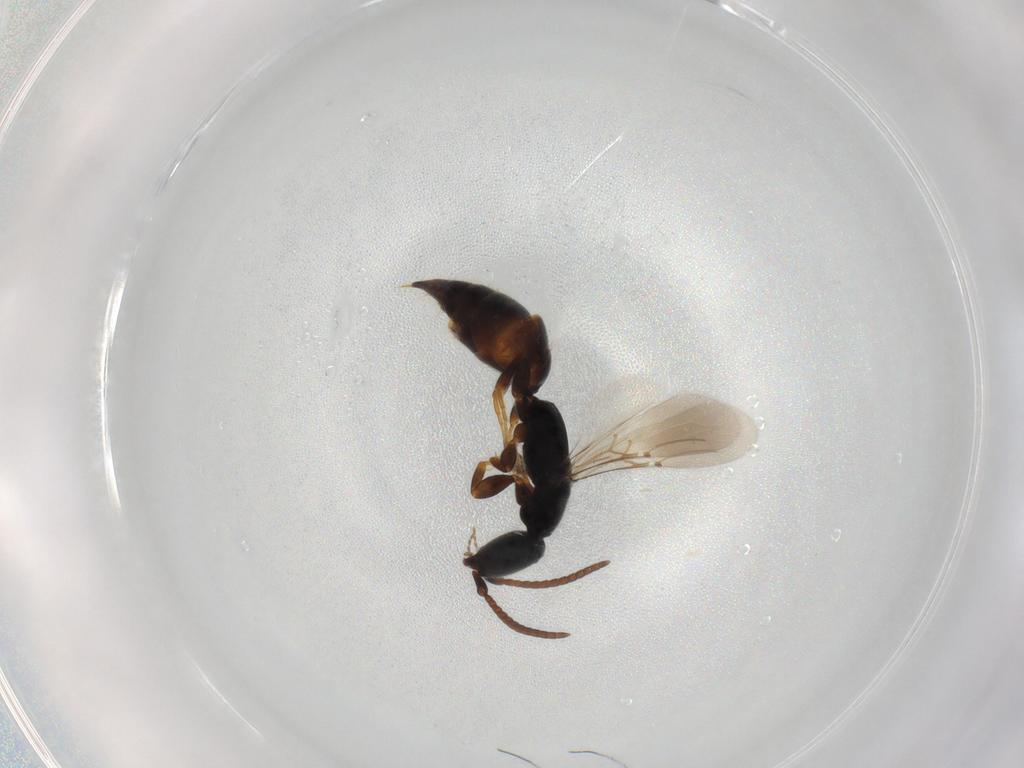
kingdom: Animalia
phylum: Arthropoda
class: Insecta
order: Hymenoptera
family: Bethylidae
